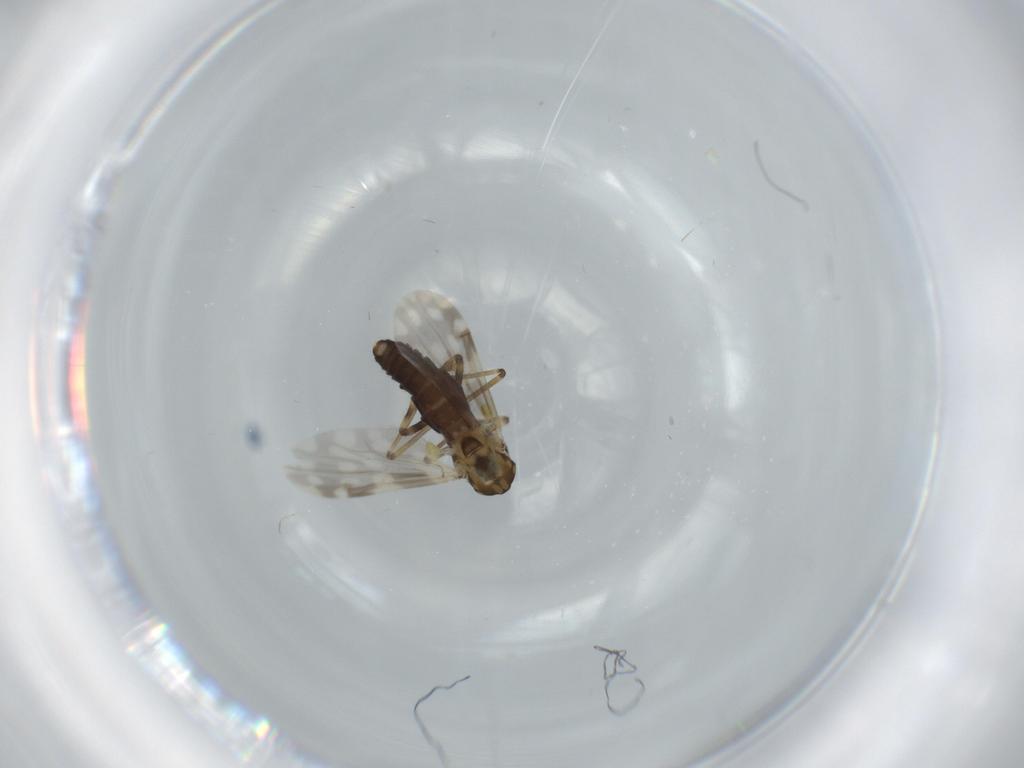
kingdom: Animalia
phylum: Arthropoda
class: Insecta
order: Diptera
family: Ceratopogonidae
